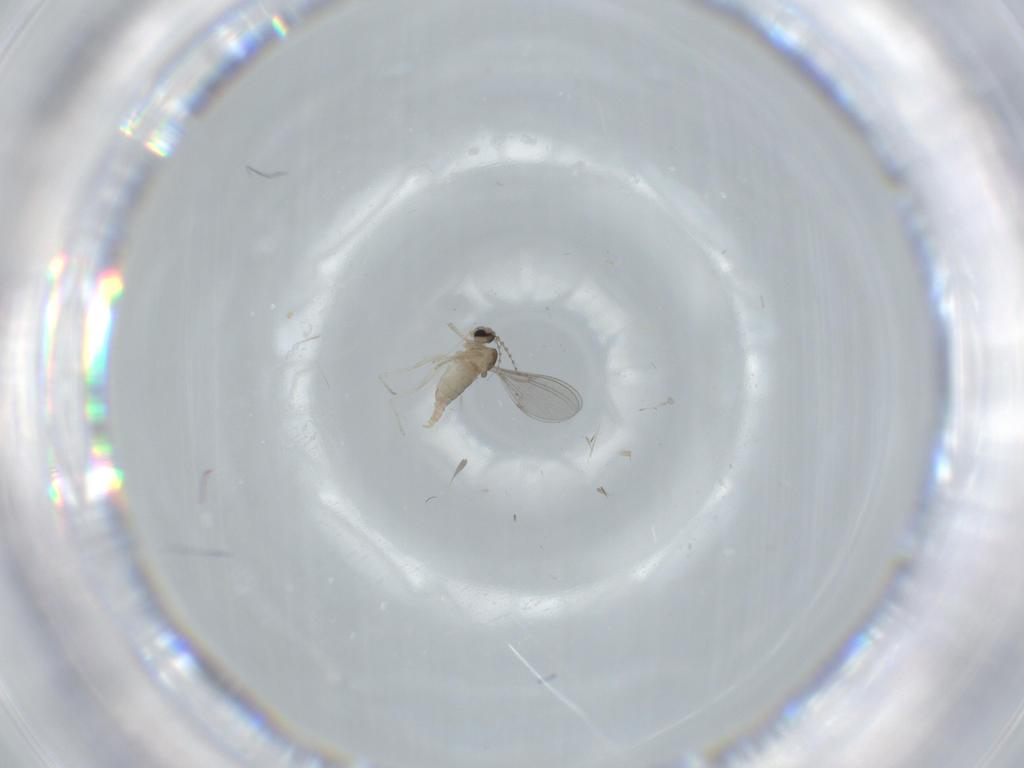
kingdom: Animalia
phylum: Arthropoda
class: Insecta
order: Diptera
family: Cecidomyiidae
